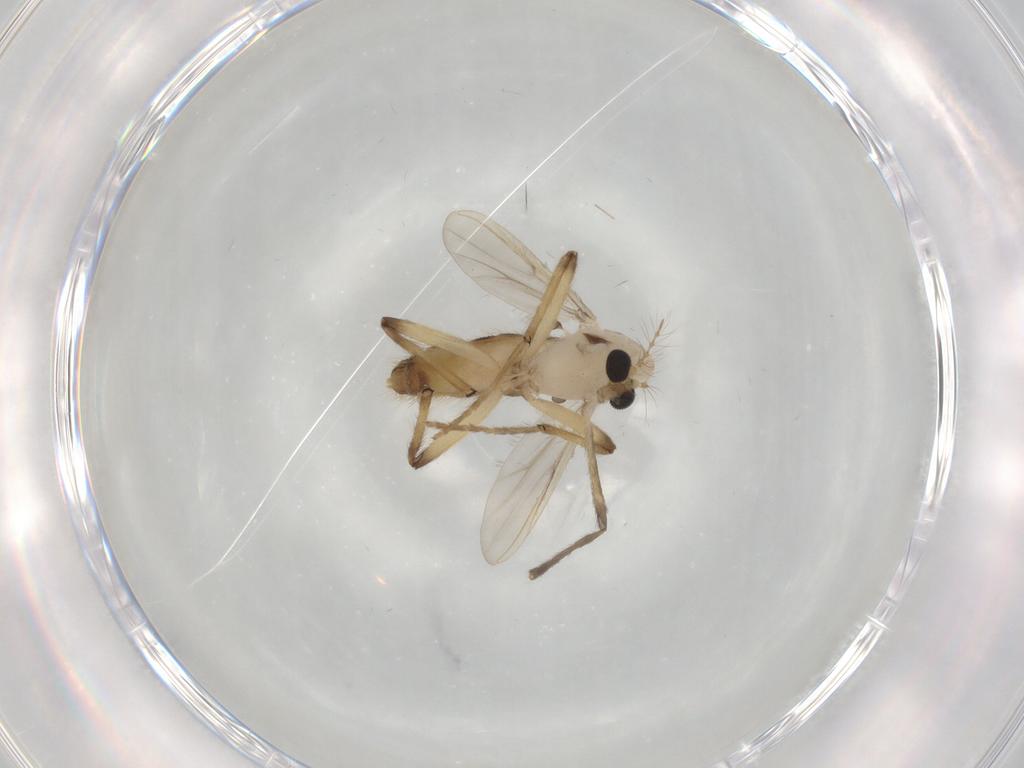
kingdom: Animalia
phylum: Arthropoda
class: Insecta
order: Diptera
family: Chironomidae
